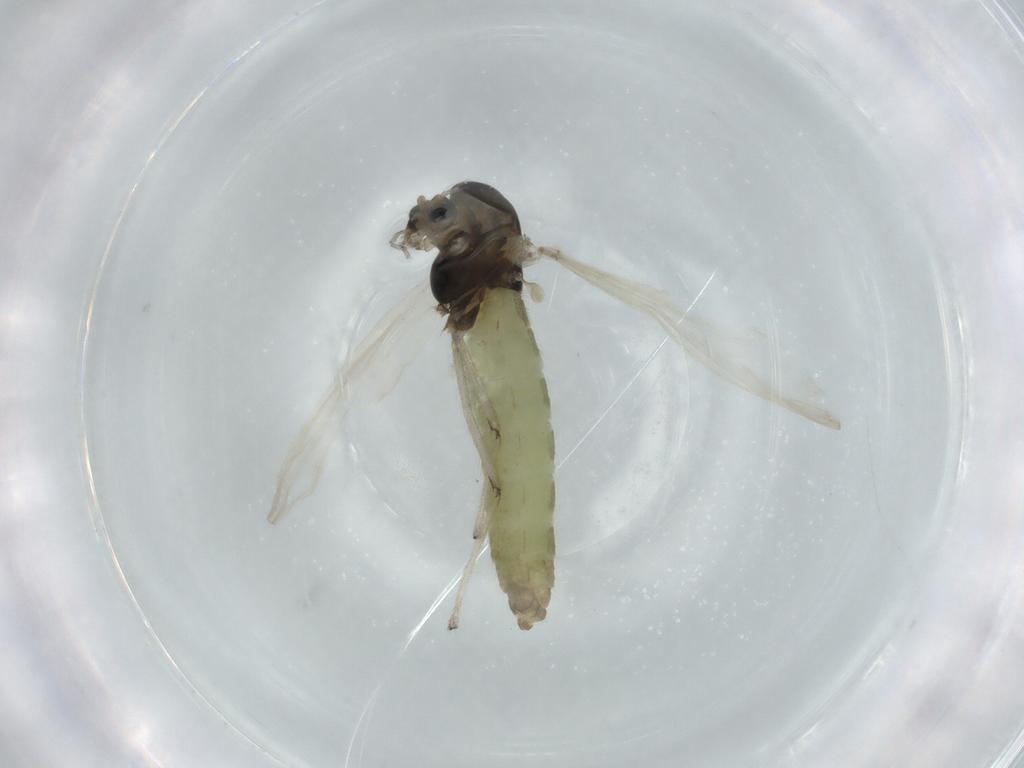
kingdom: Animalia
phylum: Arthropoda
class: Insecta
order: Diptera
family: Chironomidae
